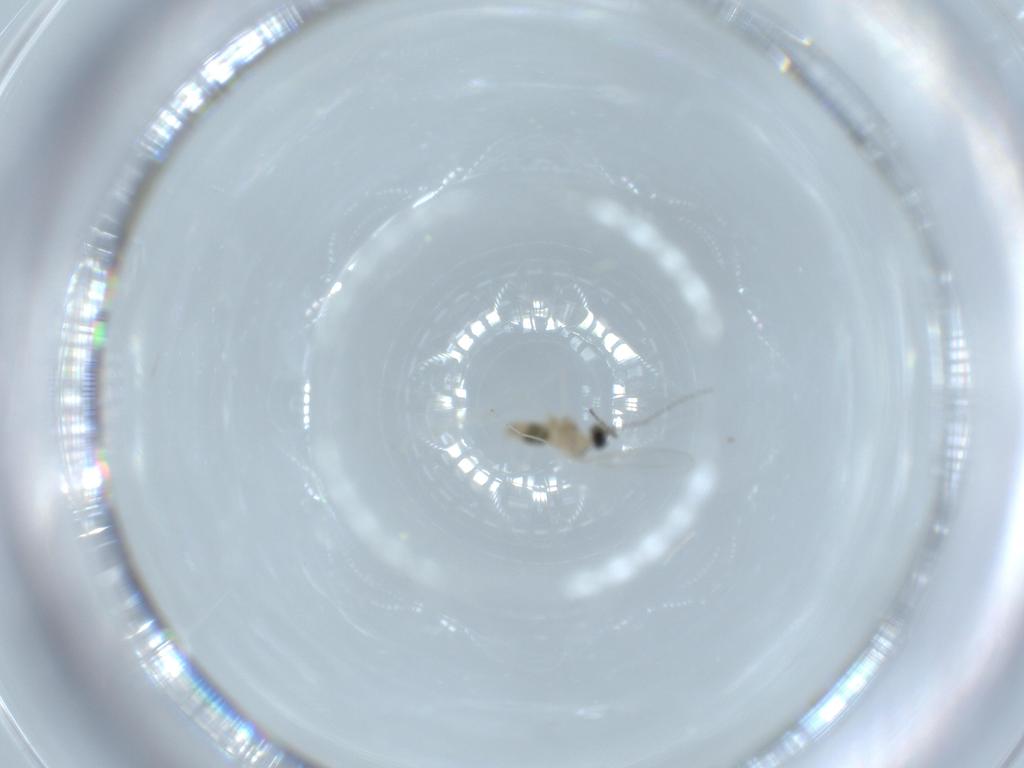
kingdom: Animalia
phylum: Arthropoda
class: Insecta
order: Diptera
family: Cecidomyiidae
